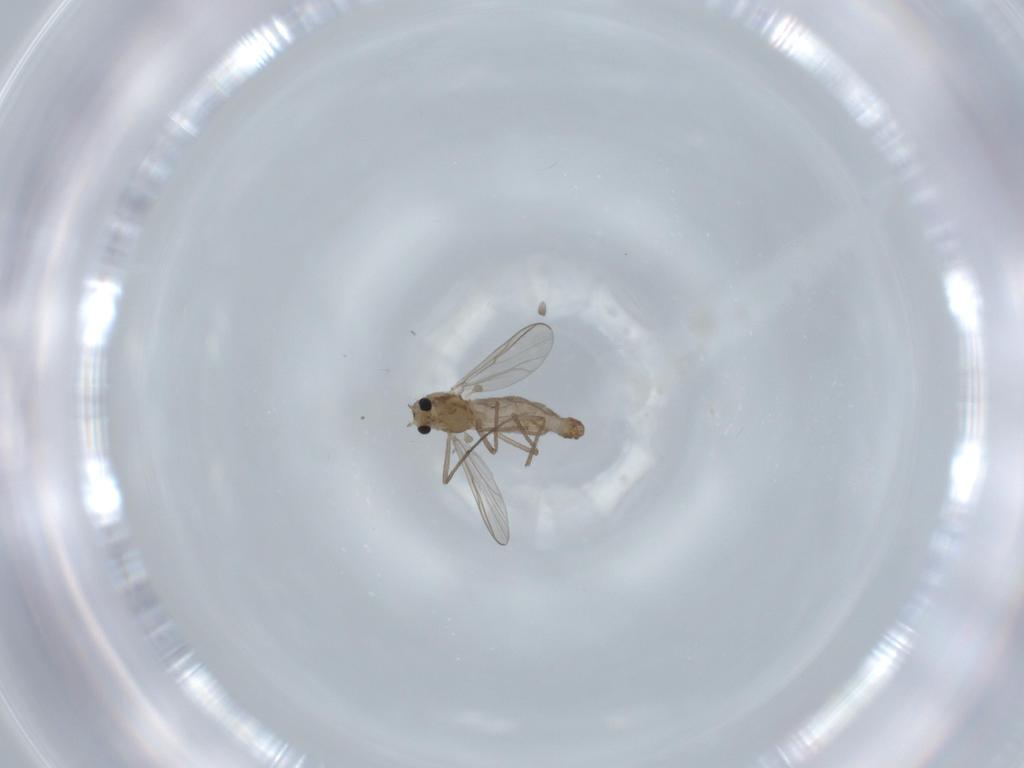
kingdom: Animalia
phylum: Arthropoda
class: Insecta
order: Diptera
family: Chironomidae
